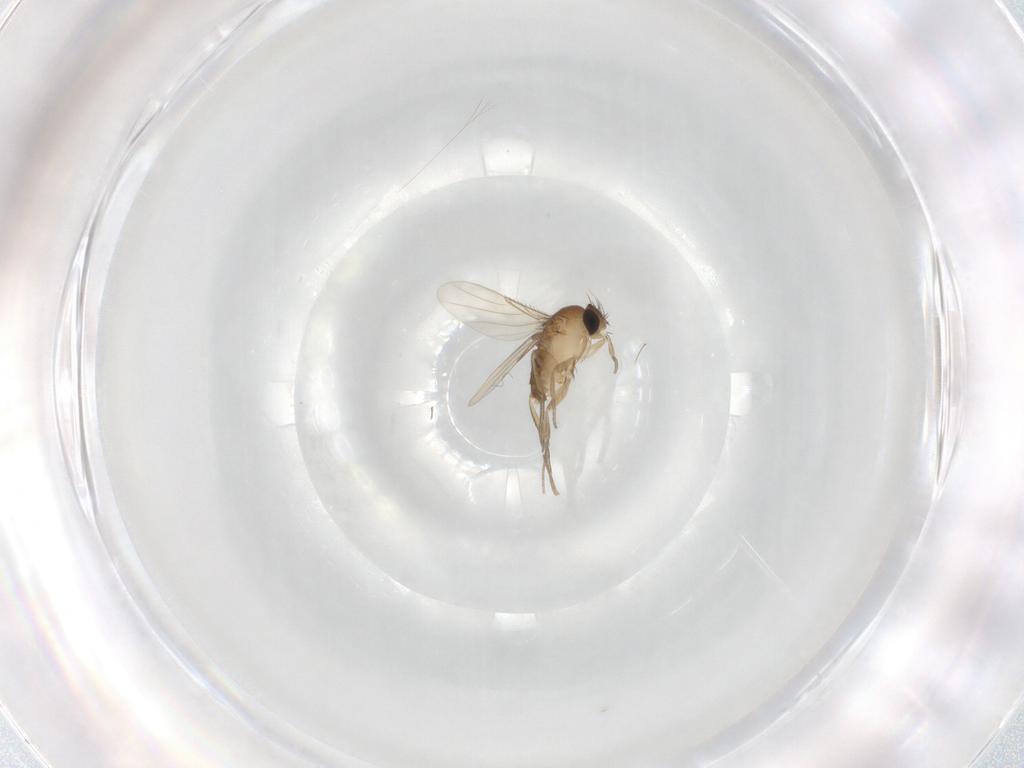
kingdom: Animalia
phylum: Arthropoda
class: Insecta
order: Diptera
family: Phoridae
